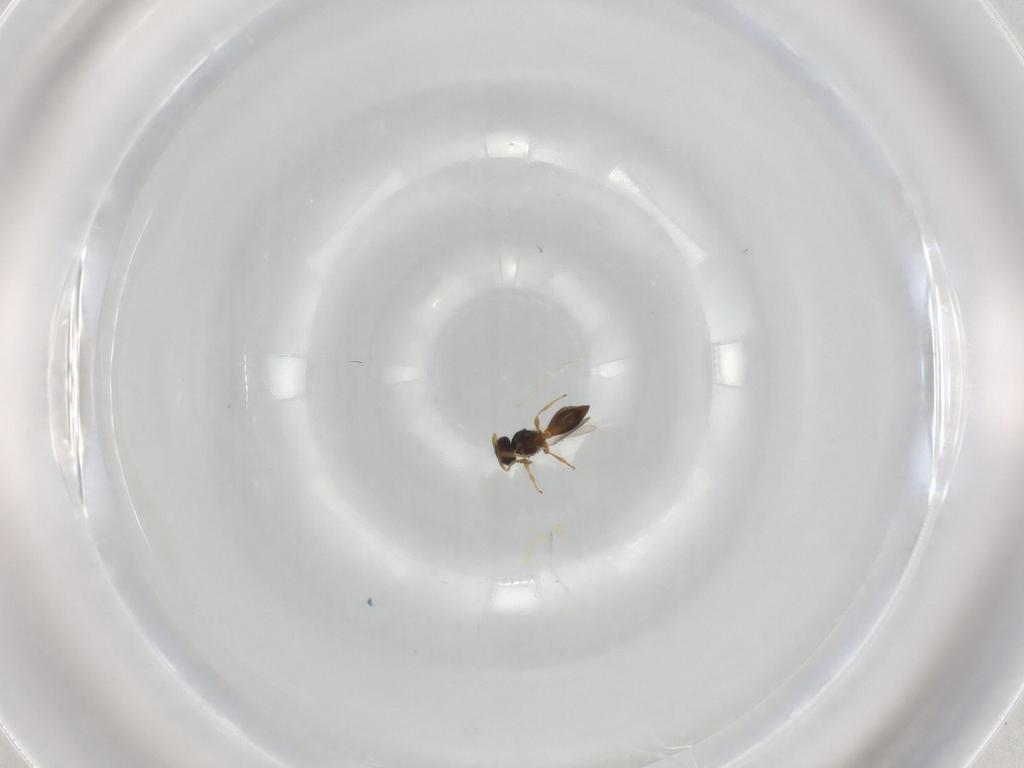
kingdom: Animalia
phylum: Arthropoda
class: Insecta
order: Hymenoptera
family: Platygastridae
